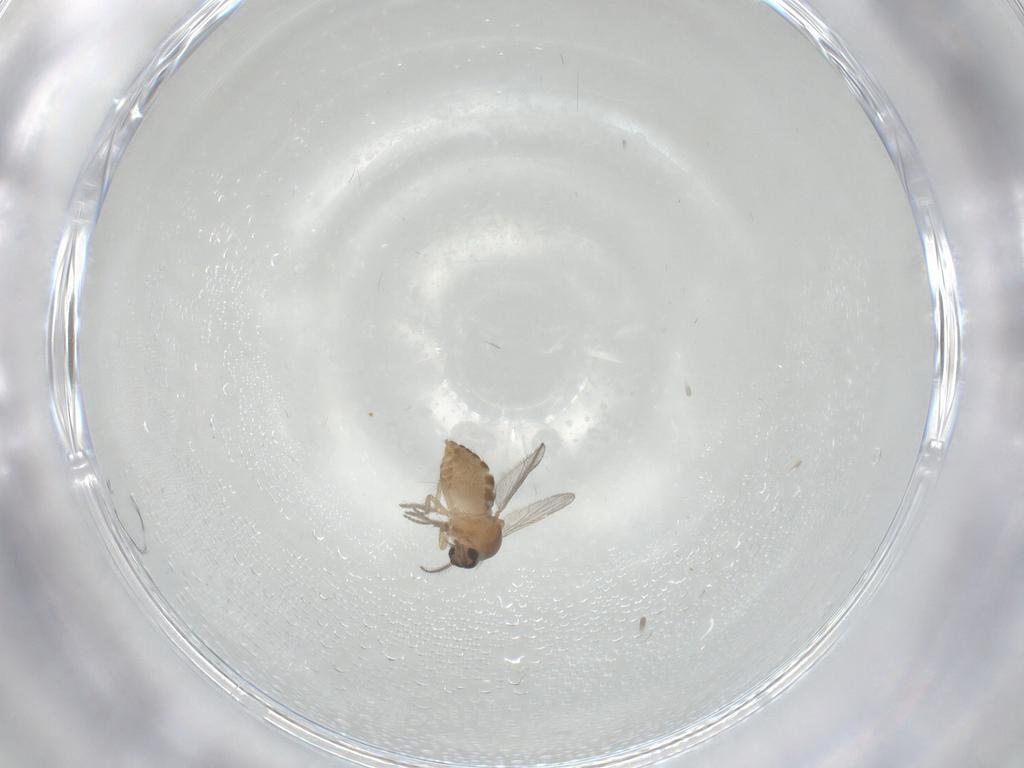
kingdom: Animalia
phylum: Arthropoda
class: Insecta
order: Diptera
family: Ceratopogonidae
